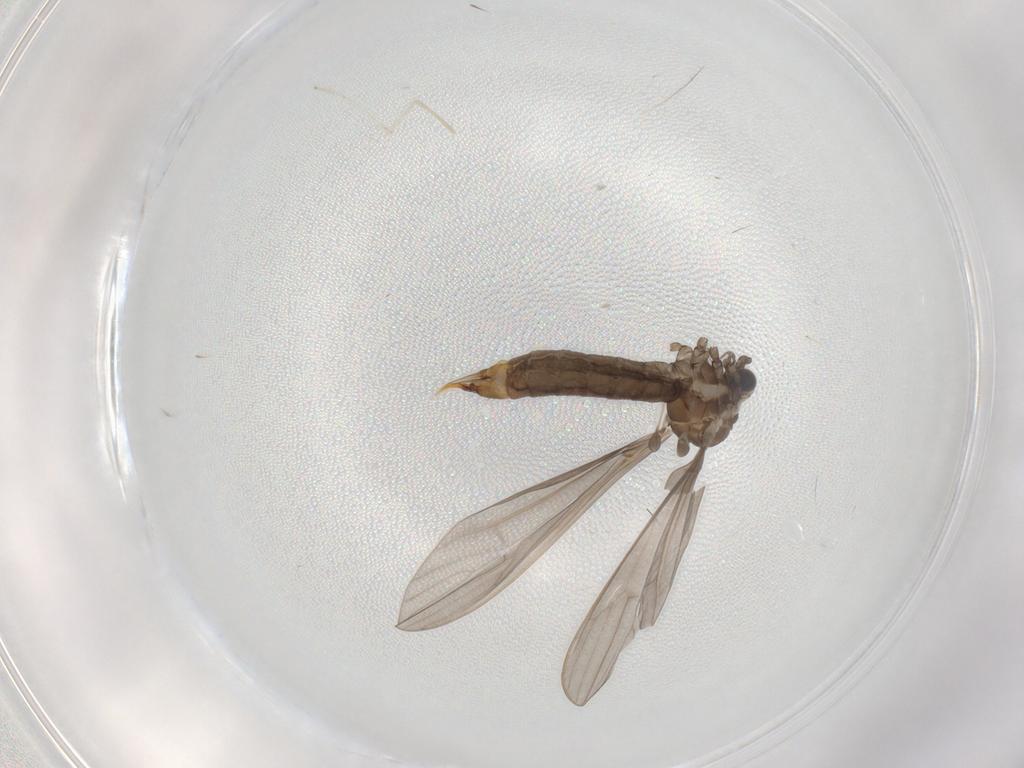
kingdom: Animalia
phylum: Arthropoda
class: Insecta
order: Diptera
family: Limoniidae
